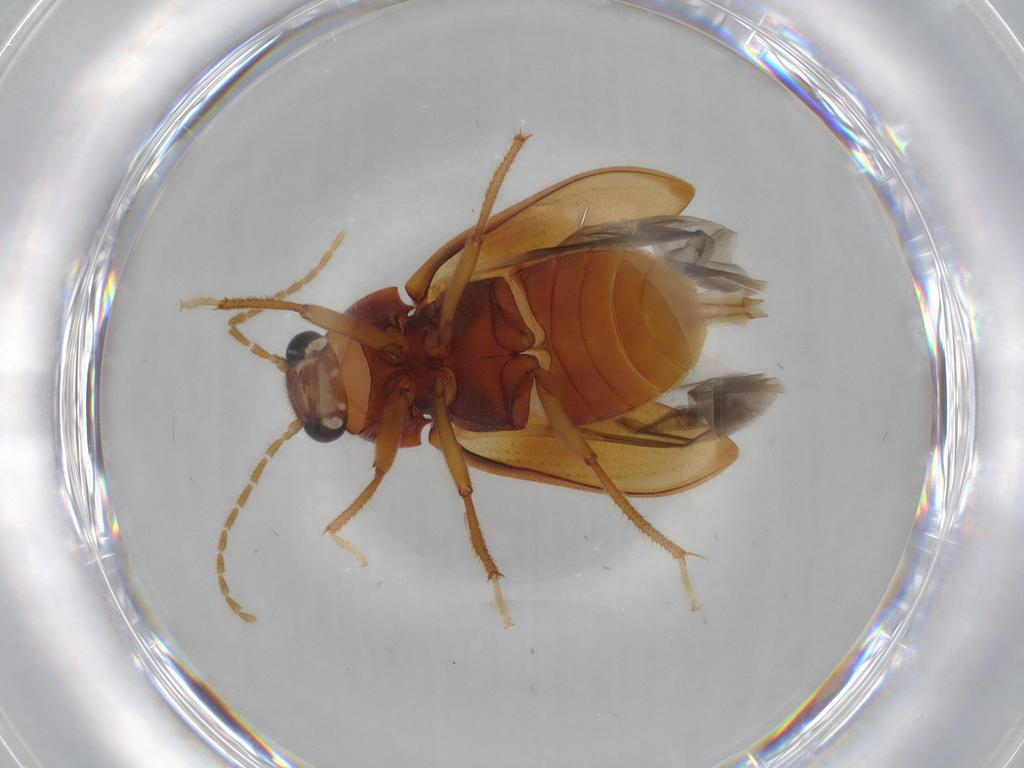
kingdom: Animalia
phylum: Arthropoda
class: Insecta
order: Coleoptera
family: Ptilodactylidae
